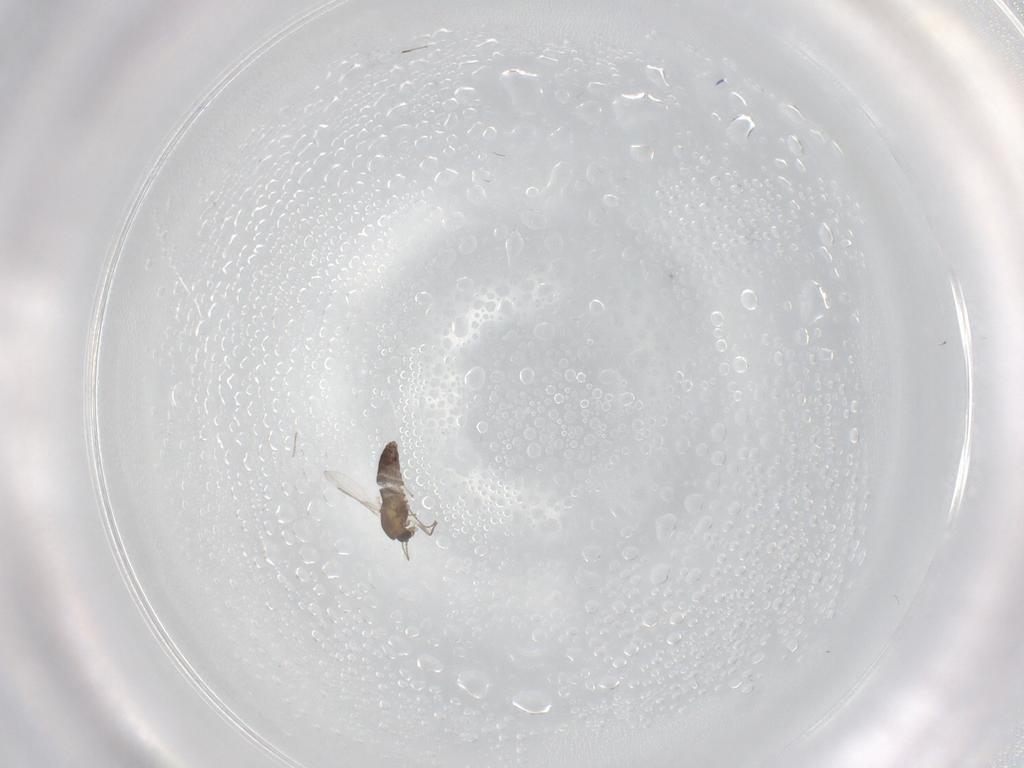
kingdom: Animalia
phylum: Arthropoda
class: Insecta
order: Diptera
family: Chironomidae
